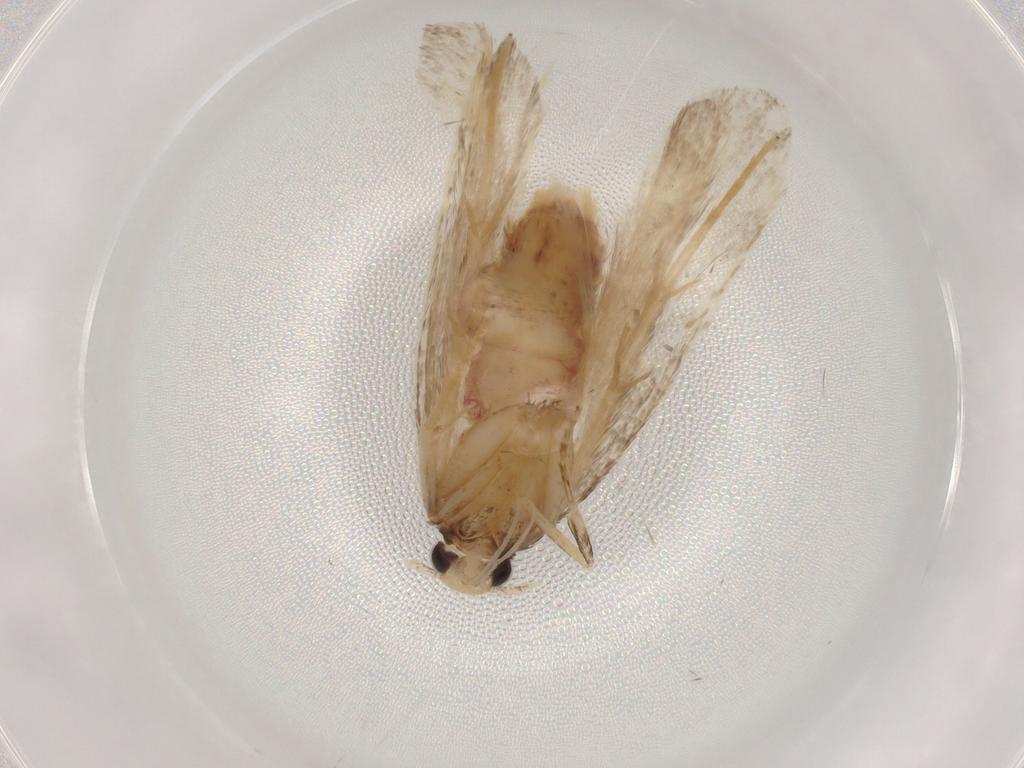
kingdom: Animalia
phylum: Arthropoda
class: Insecta
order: Lepidoptera
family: Lecithoceridae
